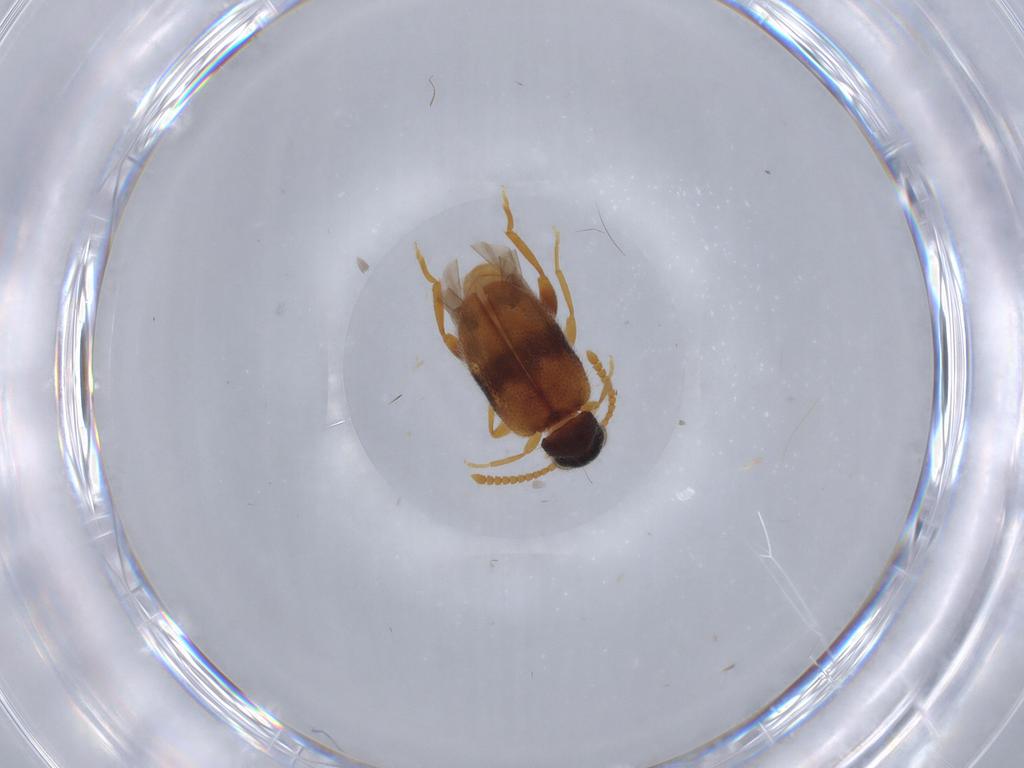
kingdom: Animalia
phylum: Arthropoda
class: Insecta
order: Coleoptera
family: Aderidae
